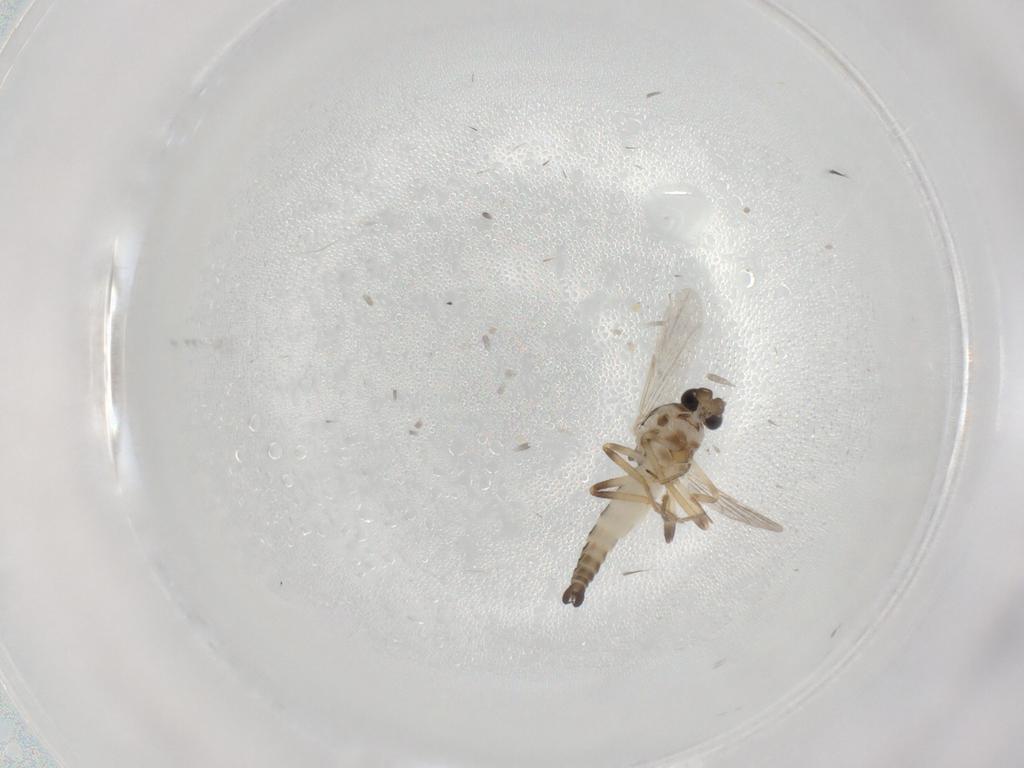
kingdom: Animalia
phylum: Arthropoda
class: Insecta
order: Diptera
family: Ceratopogonidae
